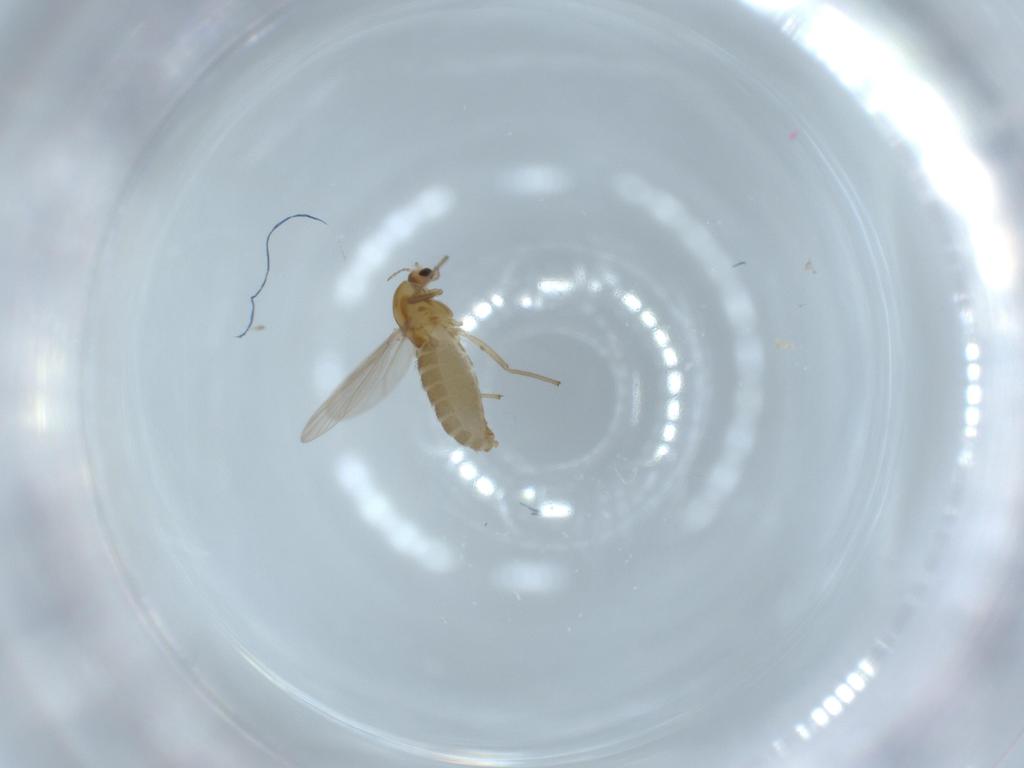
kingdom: Animalia
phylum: Arthropoda
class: Insecta
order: Diptera
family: Chironomidae
